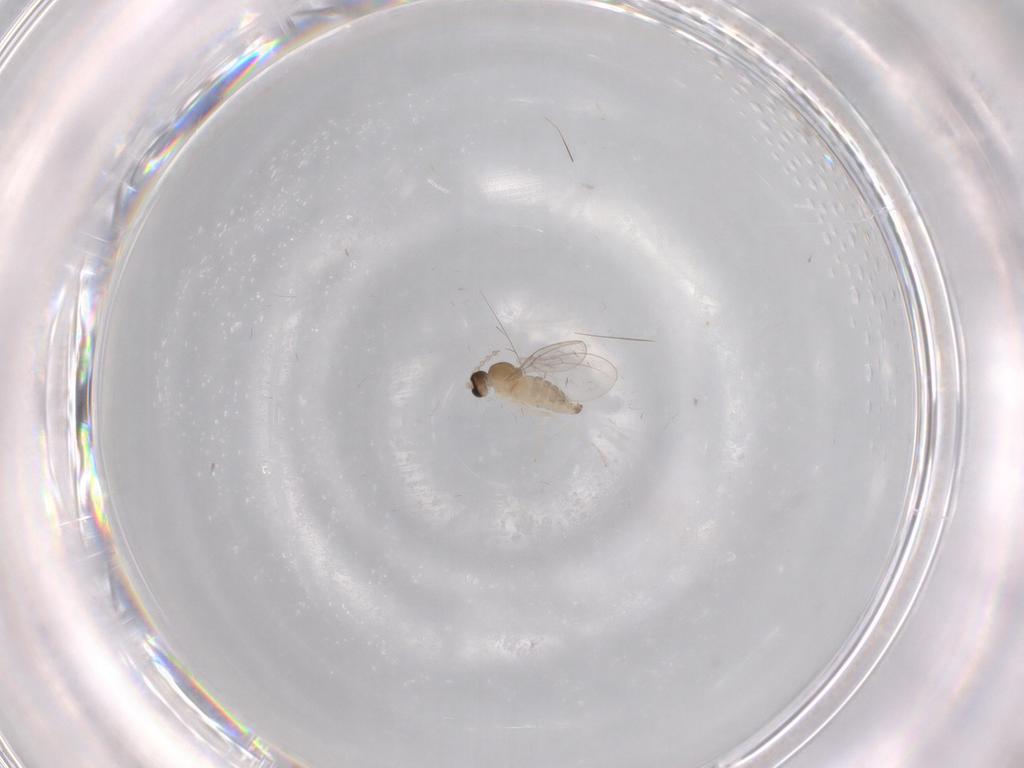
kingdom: Animalia
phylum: Arthropoda
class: Insecta
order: Diptera
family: Cecidomyiidae
